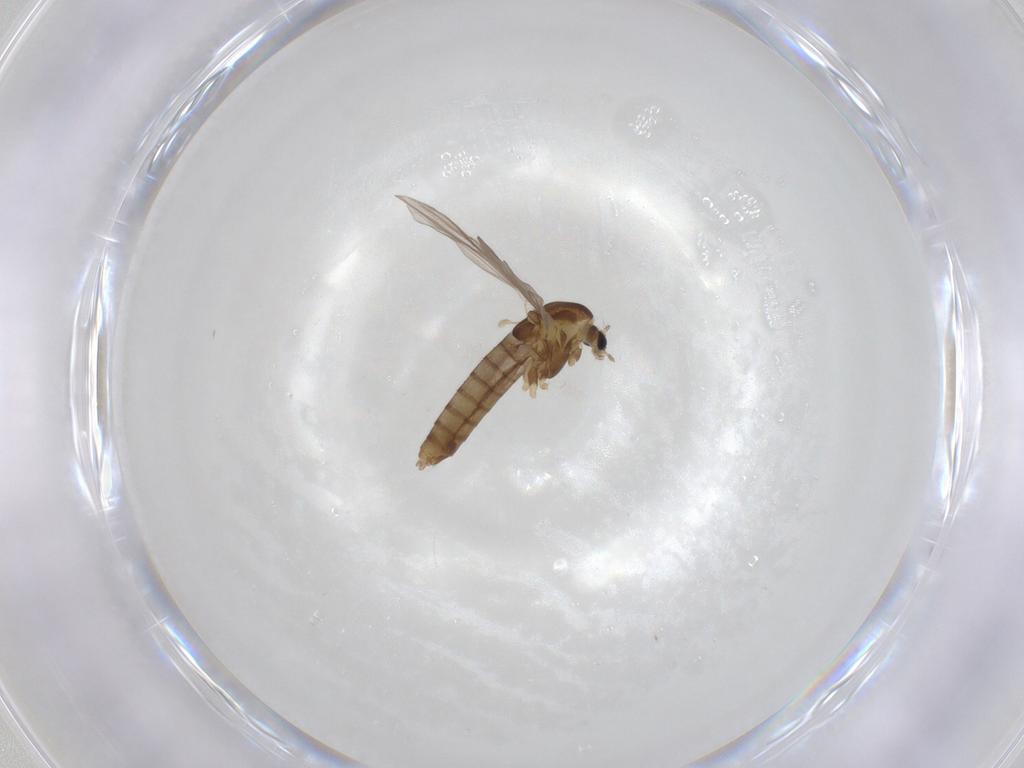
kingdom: Animalia
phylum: Arthropoda
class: Insecta
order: Diptera
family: Chironomidae
